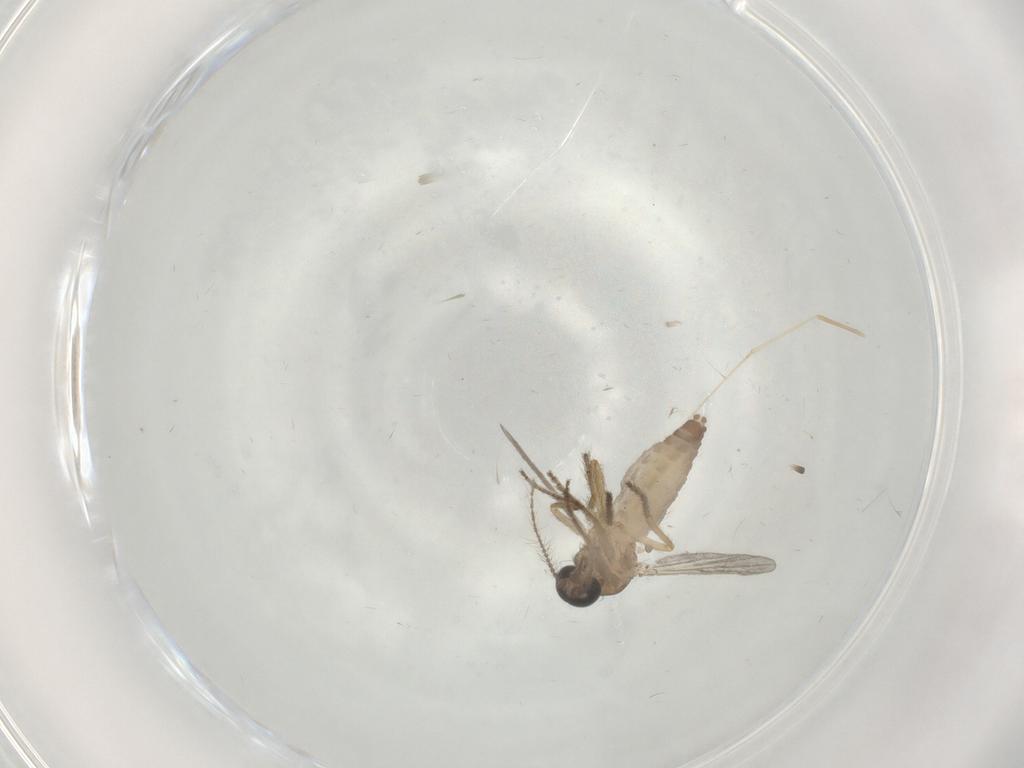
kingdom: Animalia
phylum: Arthropoda
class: Insecta
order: Diptera
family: Ceratopogonidae
